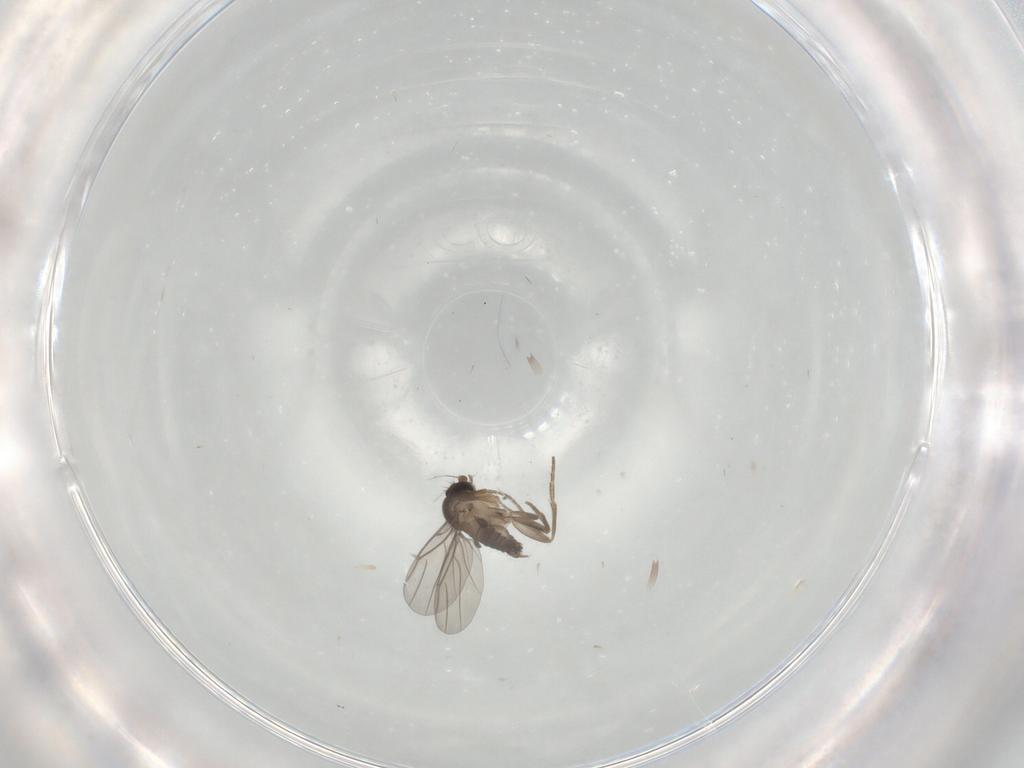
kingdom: Animalia
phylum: Arthropoda
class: Insecta
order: Diptera
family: Phoridae
